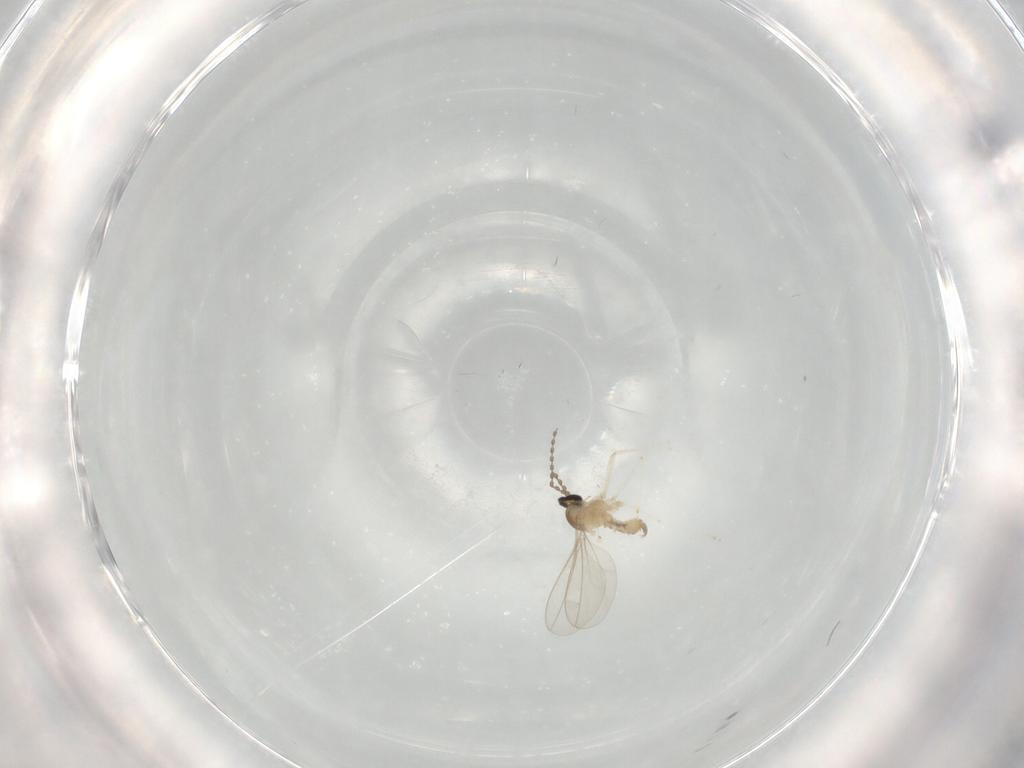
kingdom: Animalia
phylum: Arthropoda
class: Insecta
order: Diptera
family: Cecidomyiidae
